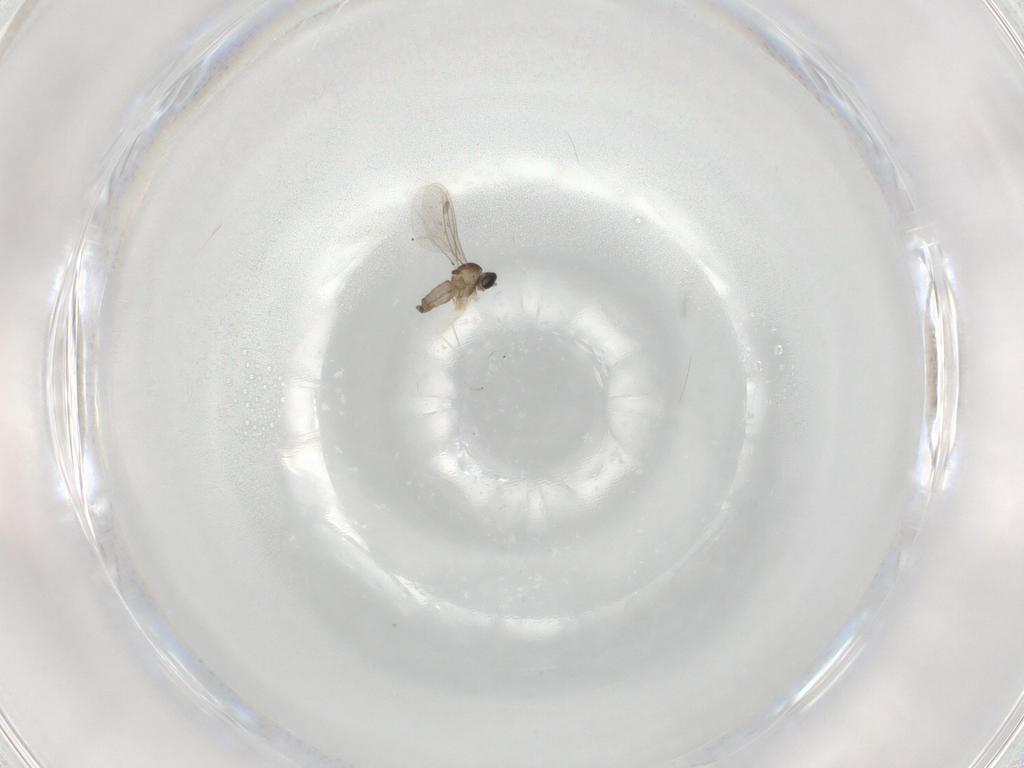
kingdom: Animalia
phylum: Arthropoda
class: Insecta
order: Diptera
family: Cecidomyiidae
